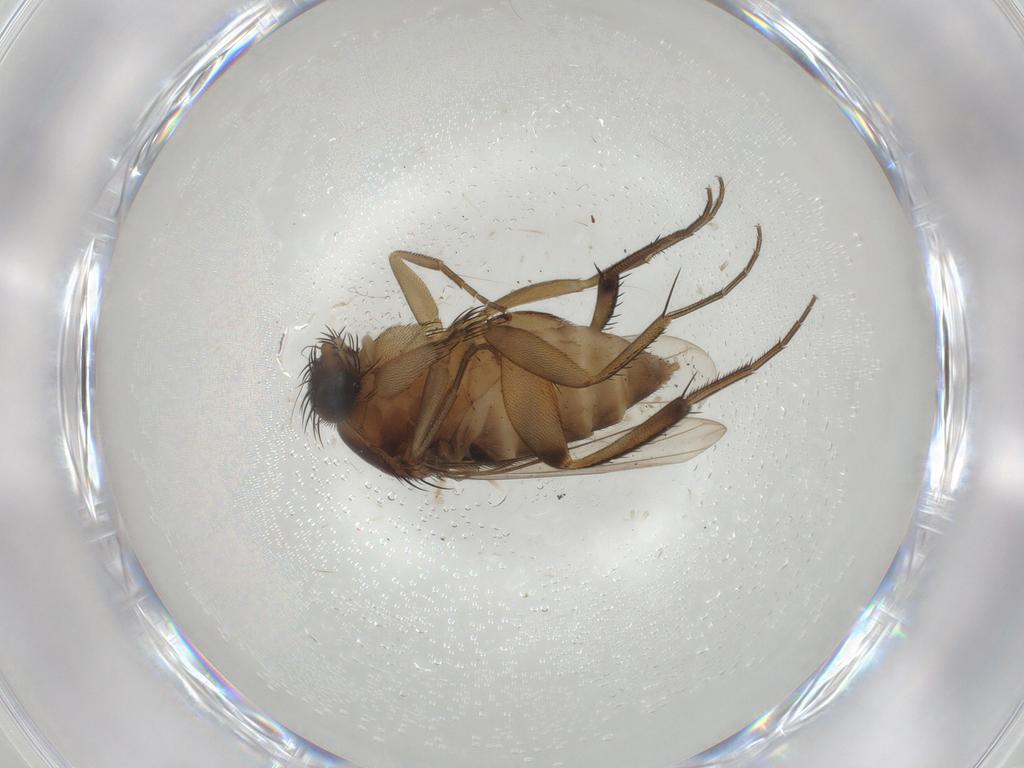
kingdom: Animalia
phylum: Arthropoda
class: Insecta
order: Diptera
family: Phoridae
